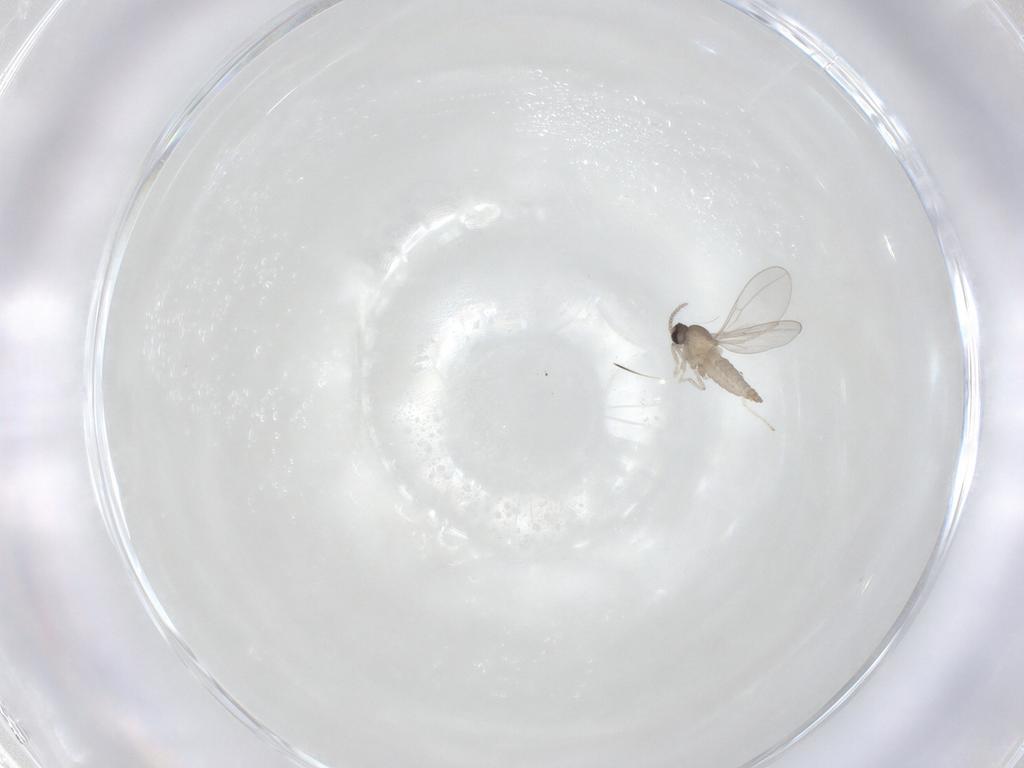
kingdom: Animalia
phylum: Arthropoda
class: Insecta
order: Diptera
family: Cecidomyiidae
